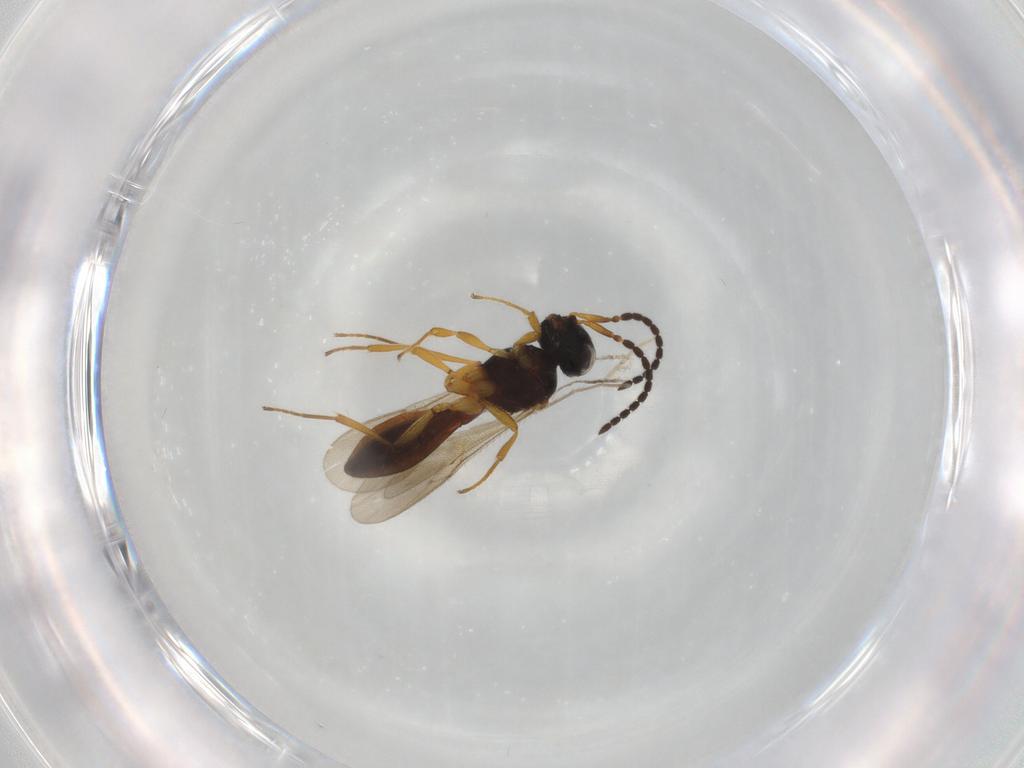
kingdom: Animalia
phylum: Arthropoda
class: Insecta
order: Hymenoptera
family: Scelionidae
